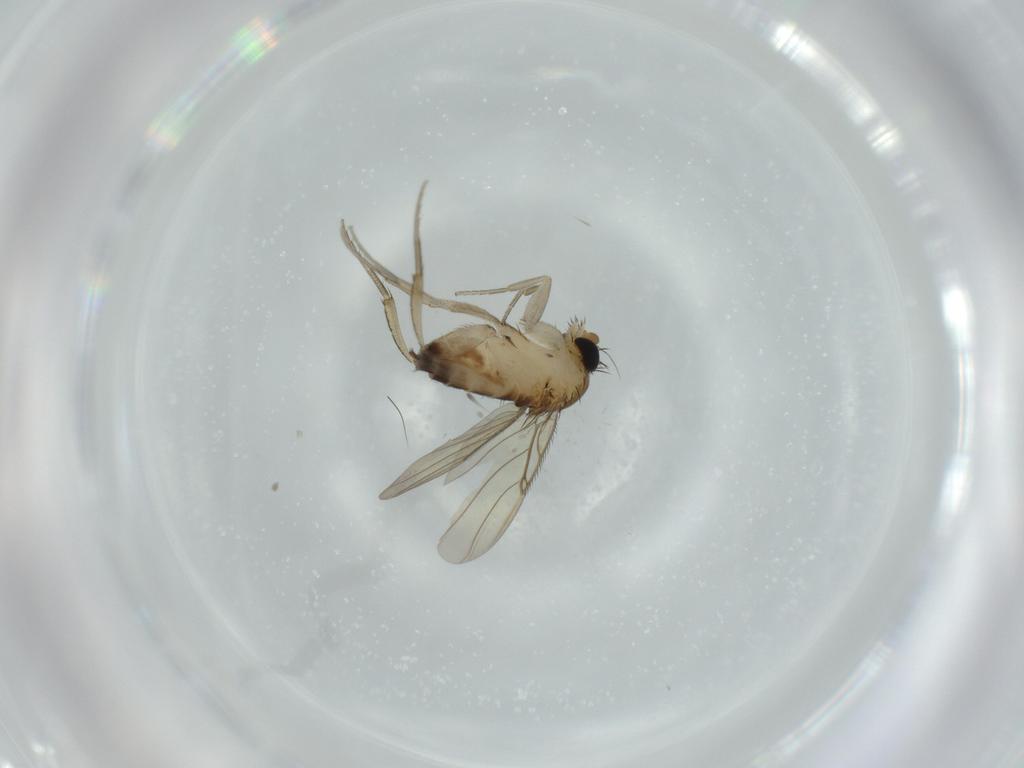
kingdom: Animalia
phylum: Arthropoda
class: Insecta
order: Diptera
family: Phoridae
